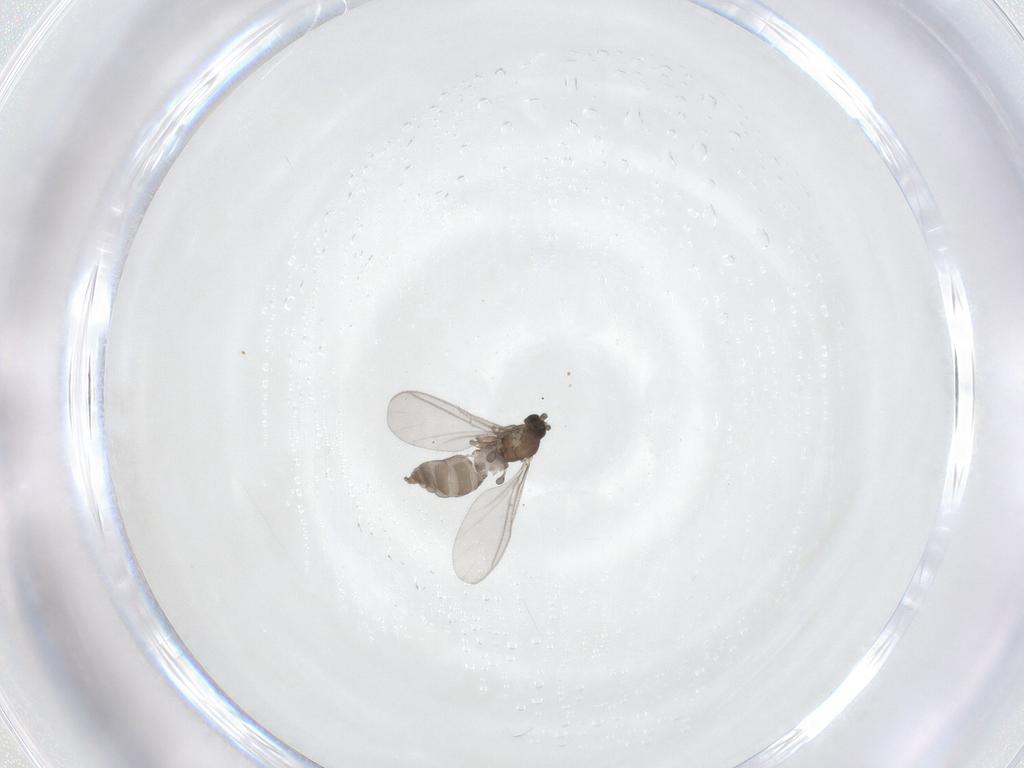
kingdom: Animalia
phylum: Arthropoda
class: Insecta
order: Diptera
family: Sciaridae
